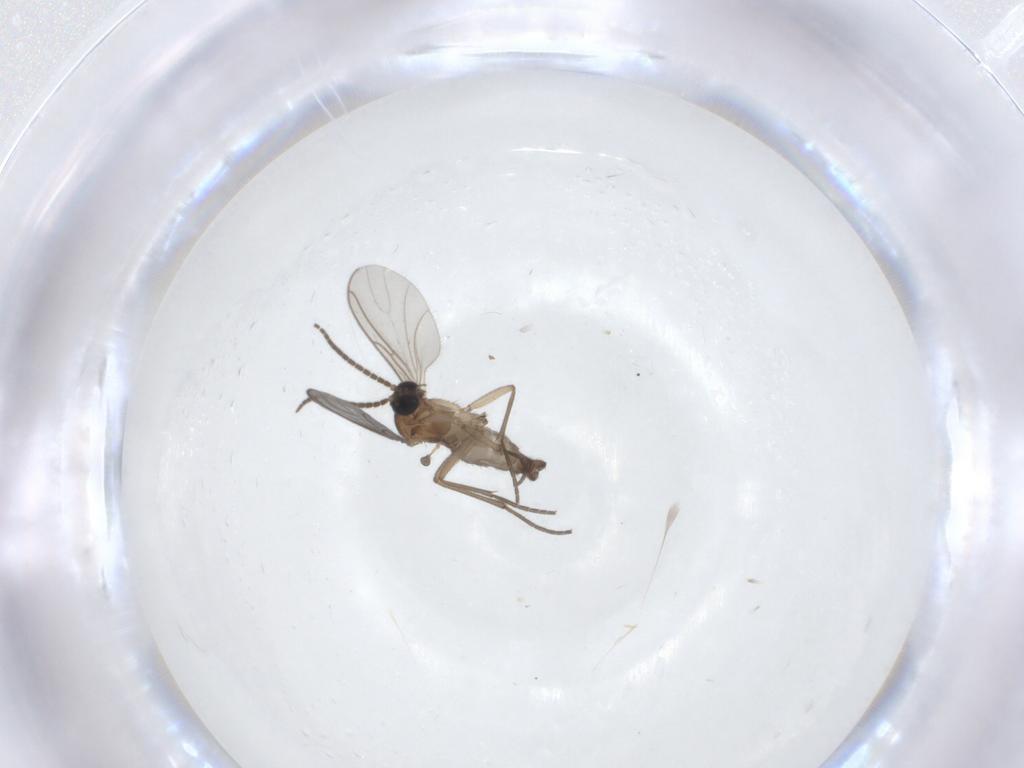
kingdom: Animalia
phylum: Arthropoda
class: Insecta
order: Diptera
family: Sciaridae
